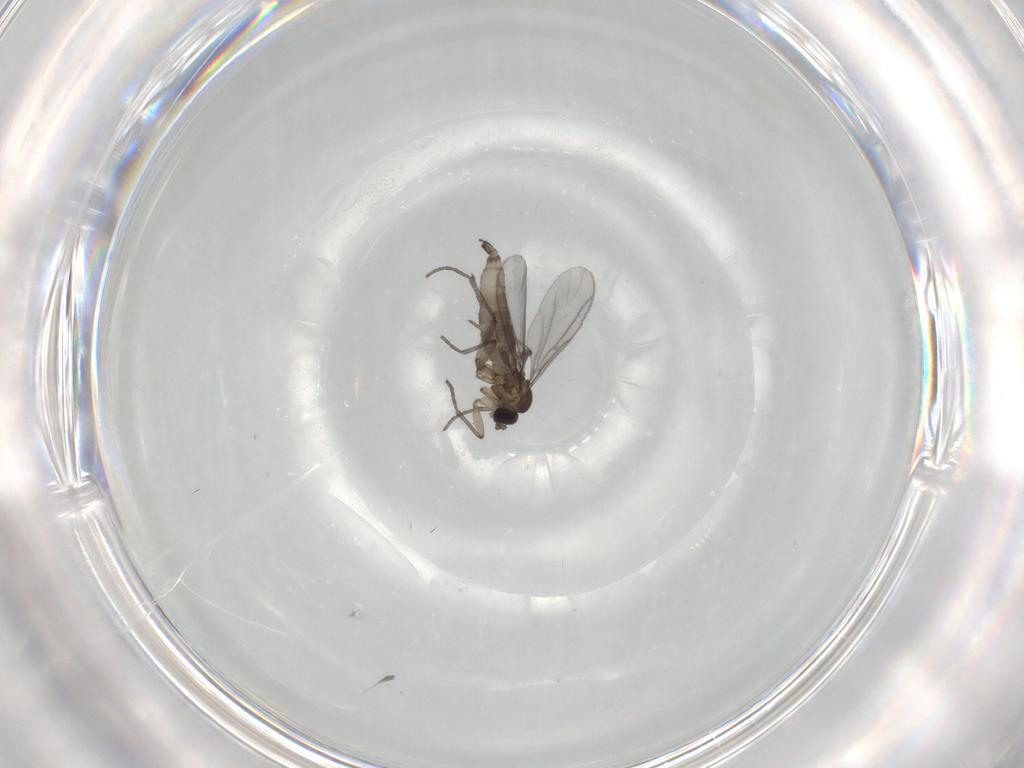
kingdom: Animalia
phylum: Arthropoda
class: Insecta
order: Diptera
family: Sciaridae
